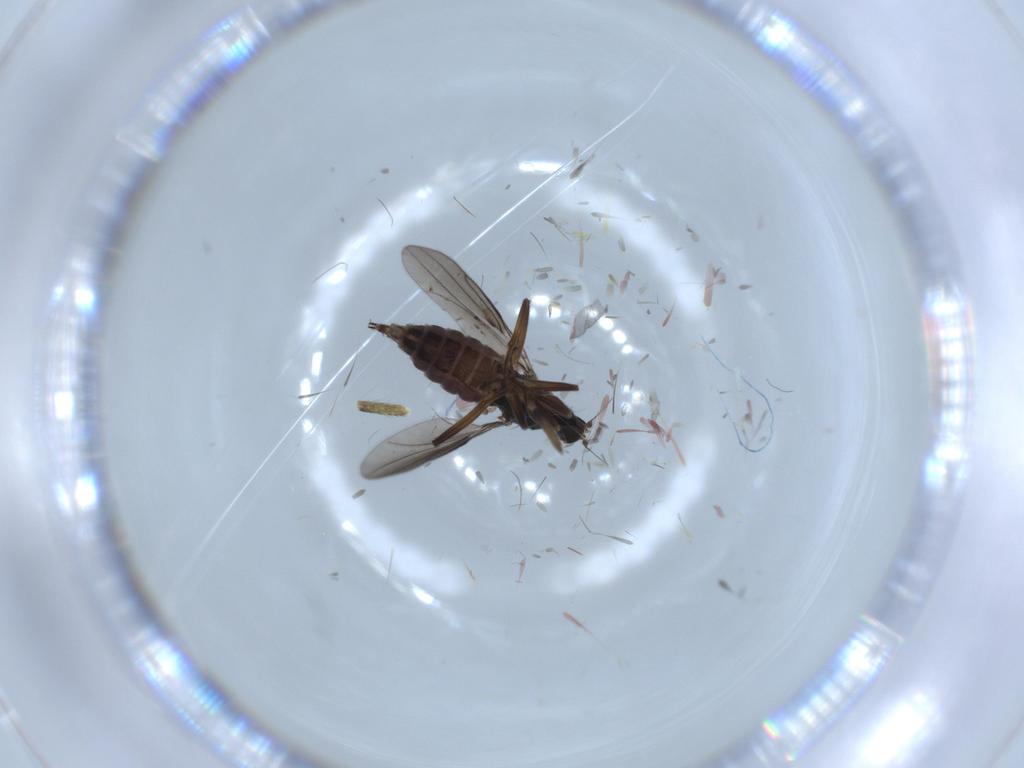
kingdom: Animalia
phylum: Arthropoda
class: Insecta
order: Diptera
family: Hybotidae
